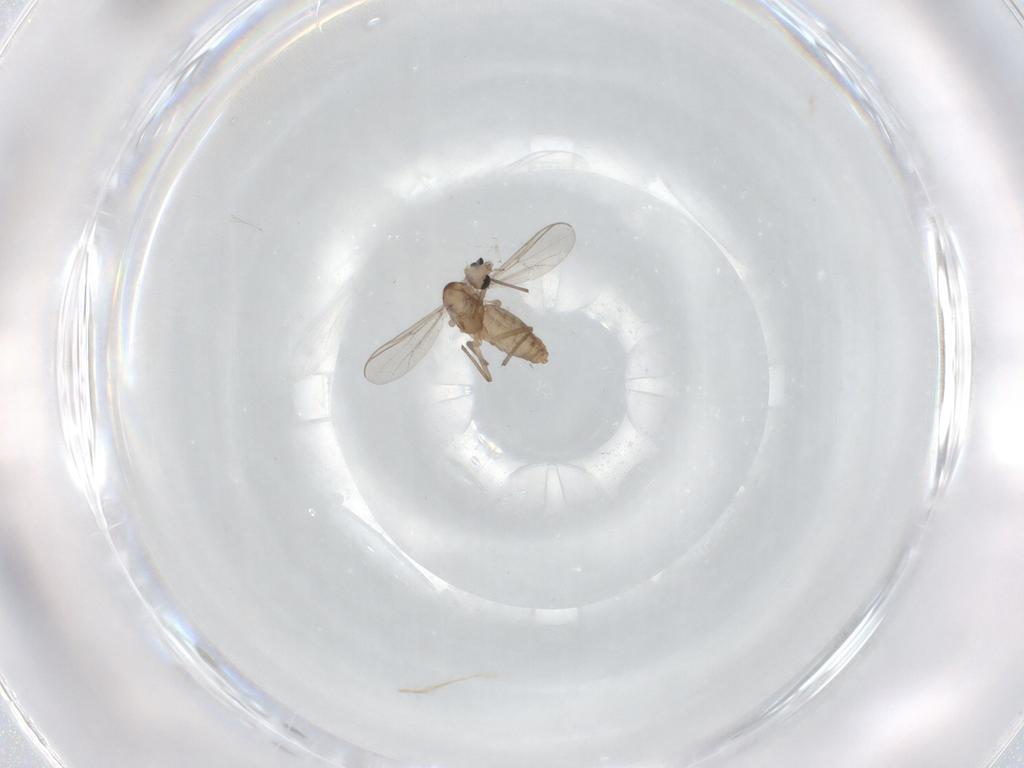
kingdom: Animalia
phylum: Arthropoda
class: Insecta
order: Diptera
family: Chironomidae
